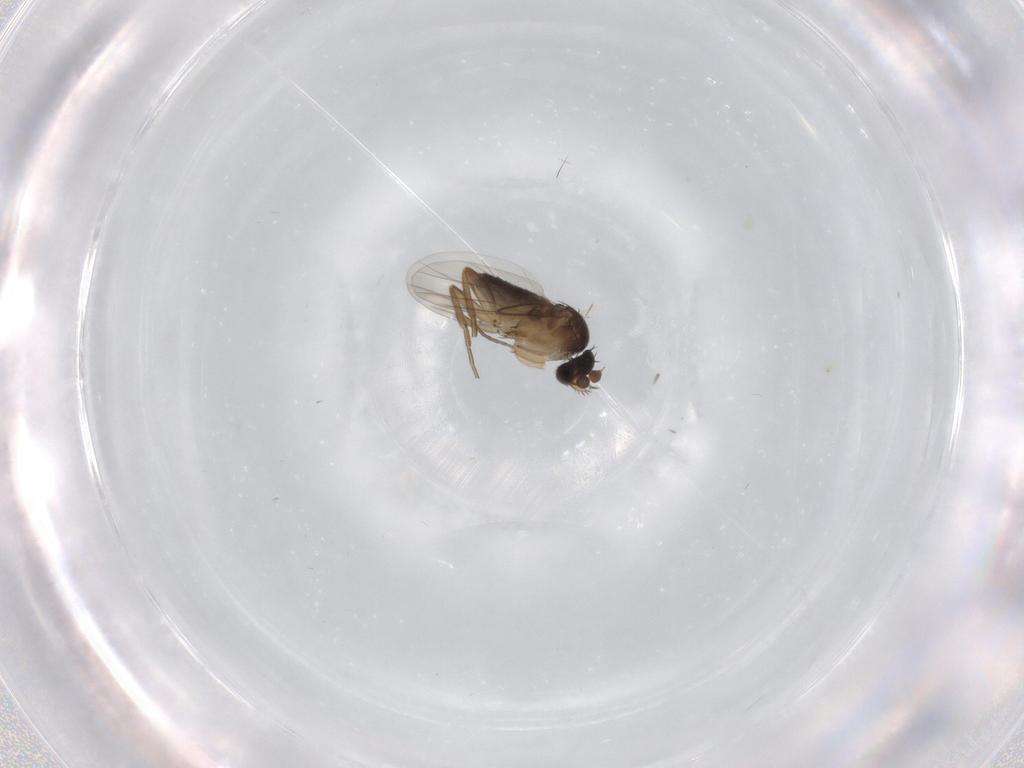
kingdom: Animalia
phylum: Arthropoda
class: Insecta
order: Diptera
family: Phoridae
